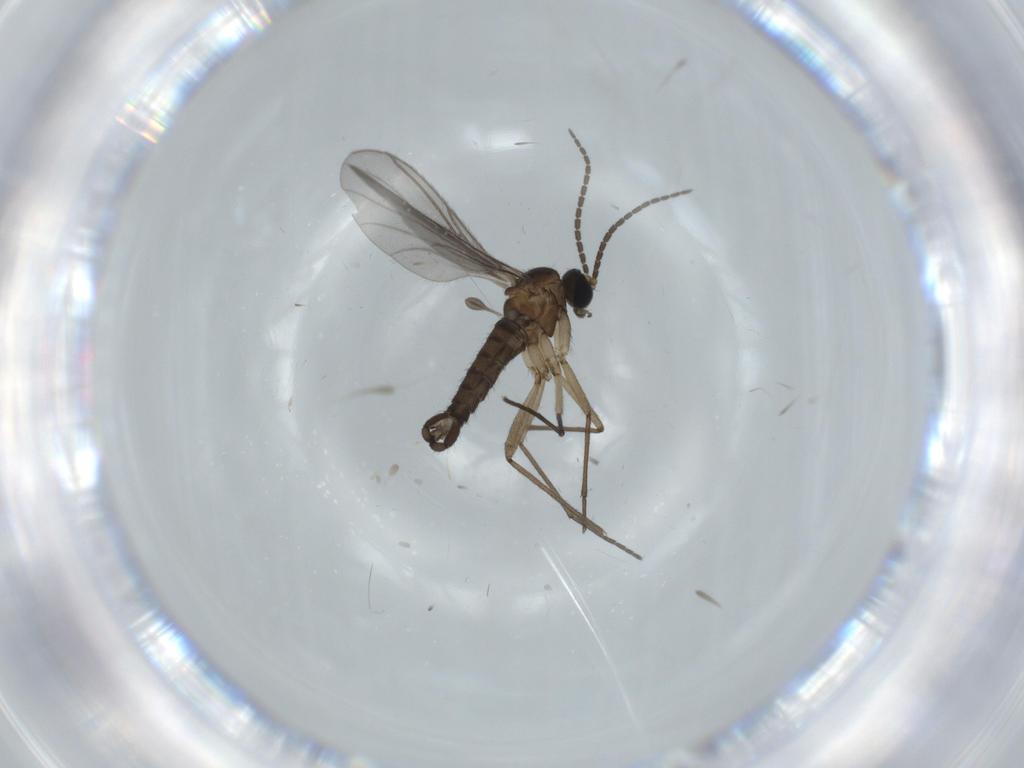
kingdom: Animalia
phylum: Arthropoda
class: Insecta
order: Diptera
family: Sciaridae
